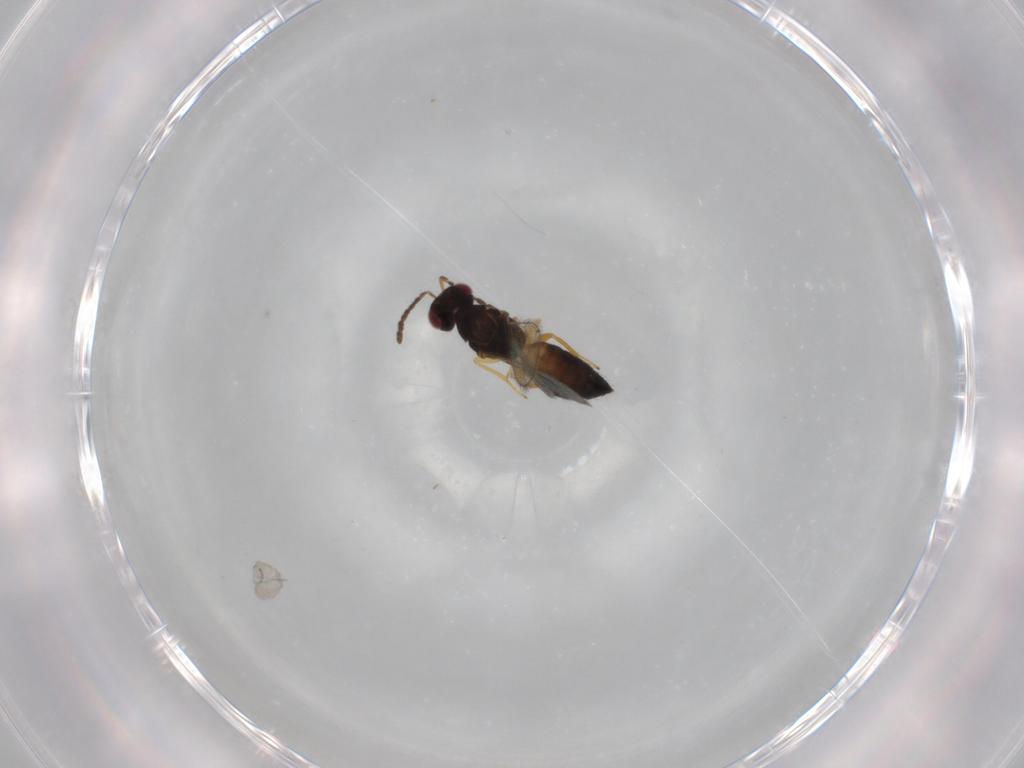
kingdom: Animalia
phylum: Arthropoda
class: Insecta
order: Hymenoptera
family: Eulophidae
